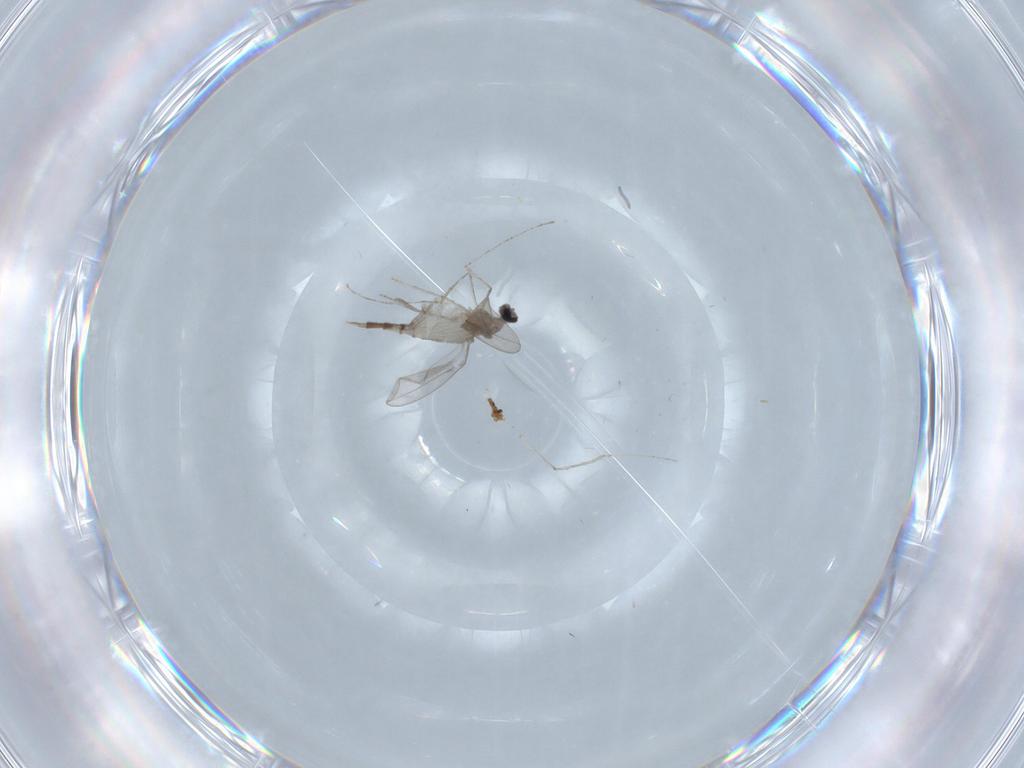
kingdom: Animalia
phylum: Arthropoda
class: Insecta
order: Diptera
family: Cecidomyiidae
